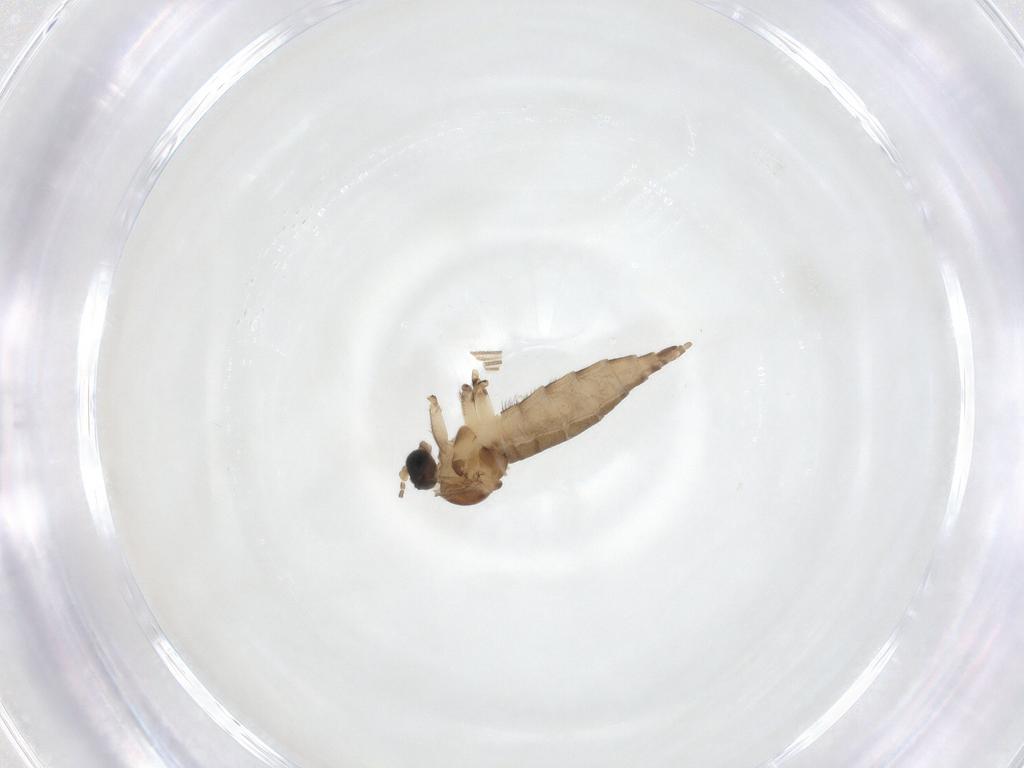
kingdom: Animalia
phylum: Arthropoda
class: Insecta
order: Diptera
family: Sciaridae
